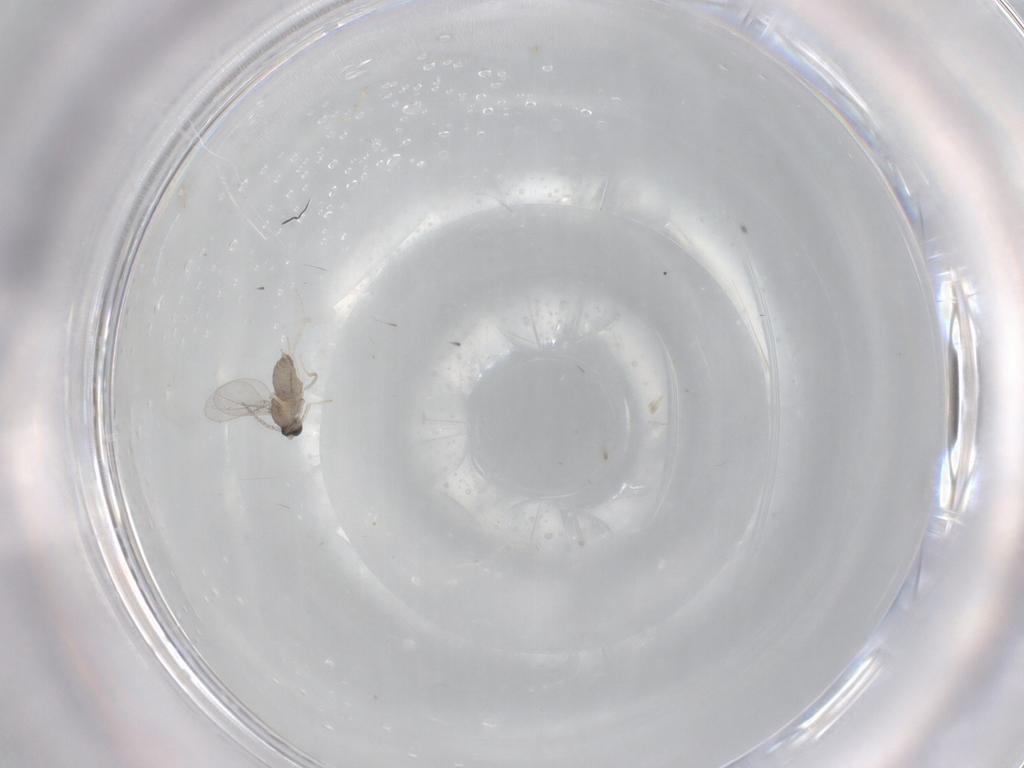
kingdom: Animalia
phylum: Arthropoda
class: Insecta
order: Diptera
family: Cecidomyiidae
